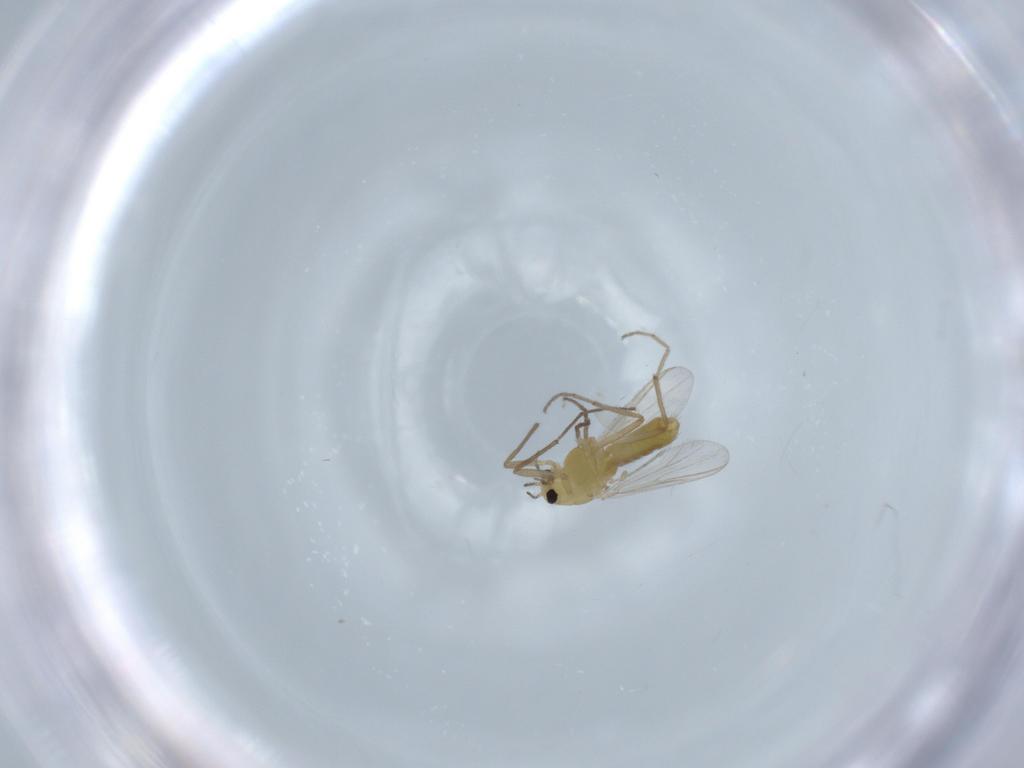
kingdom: Animalia
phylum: Arthropoda
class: Insecta
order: Diptera
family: Chironomidae
